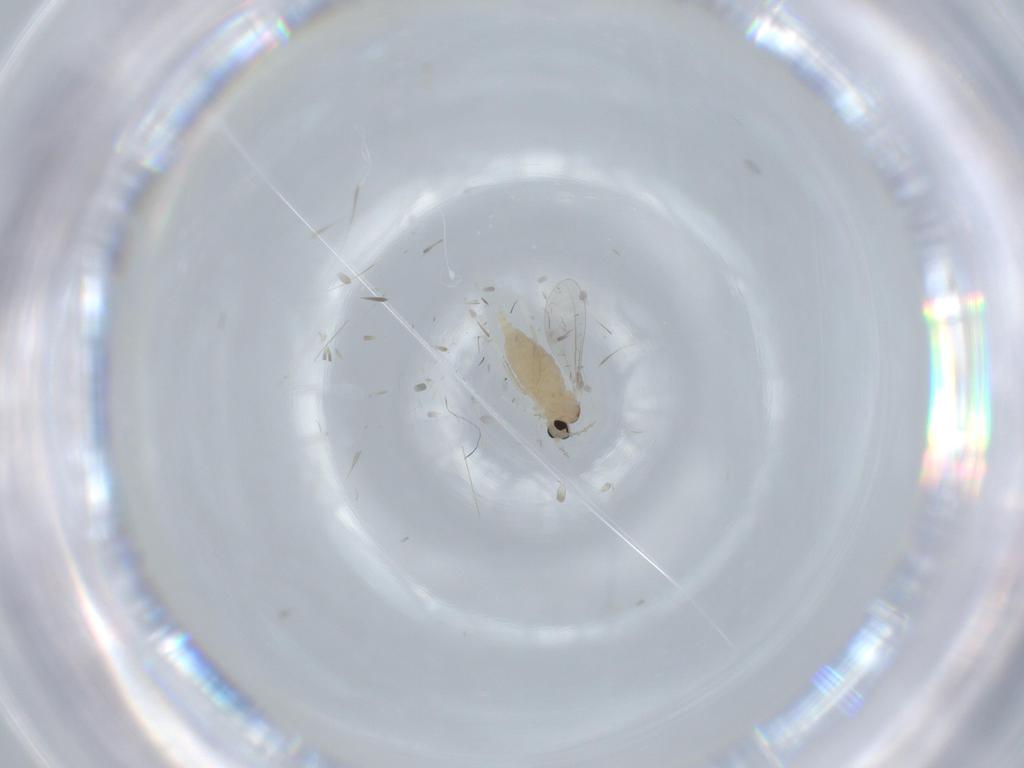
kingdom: Animalia
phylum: Arthropoda
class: Insecta
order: Diptera
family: Cecidomyiidae
